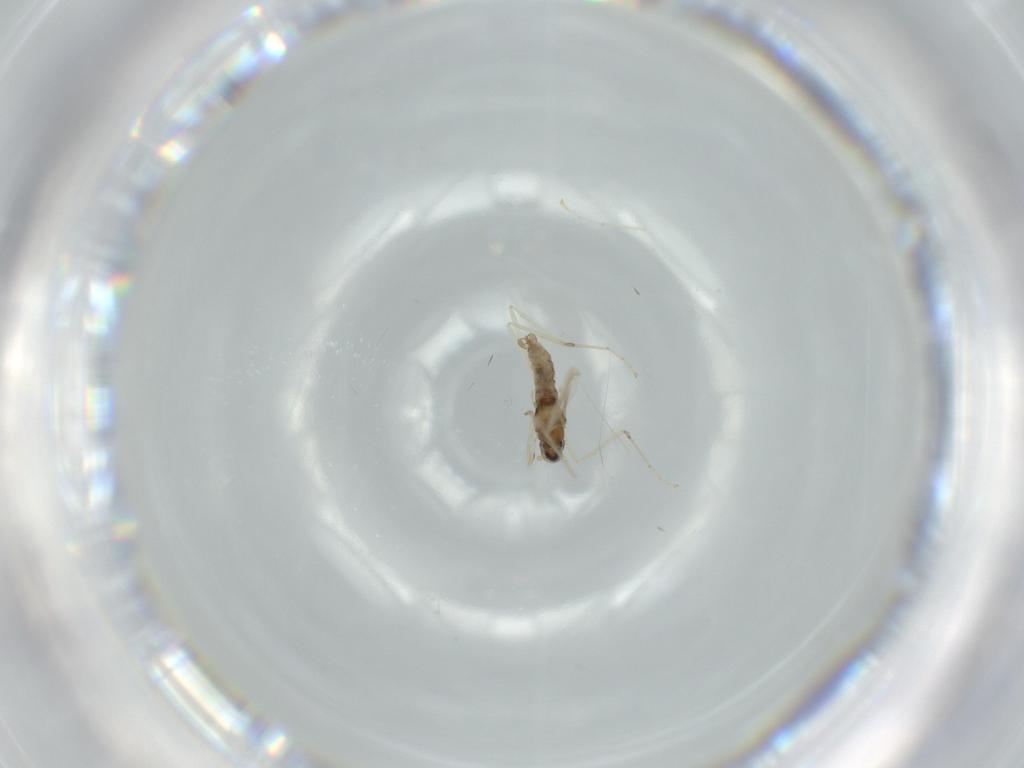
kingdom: Animalia
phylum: Arthropoda
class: Insecta
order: Diptera
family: Cecidomyiidae
